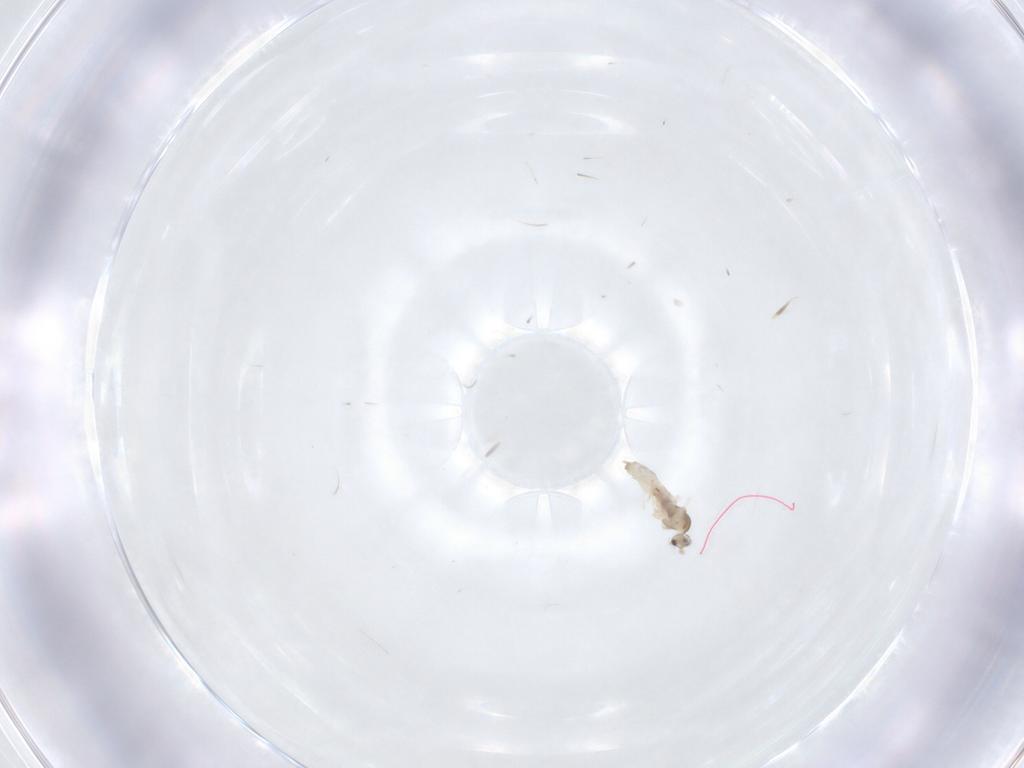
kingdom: Animalia
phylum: Arthropoda
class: Insecta
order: Diptera
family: Cecidomyiidae
